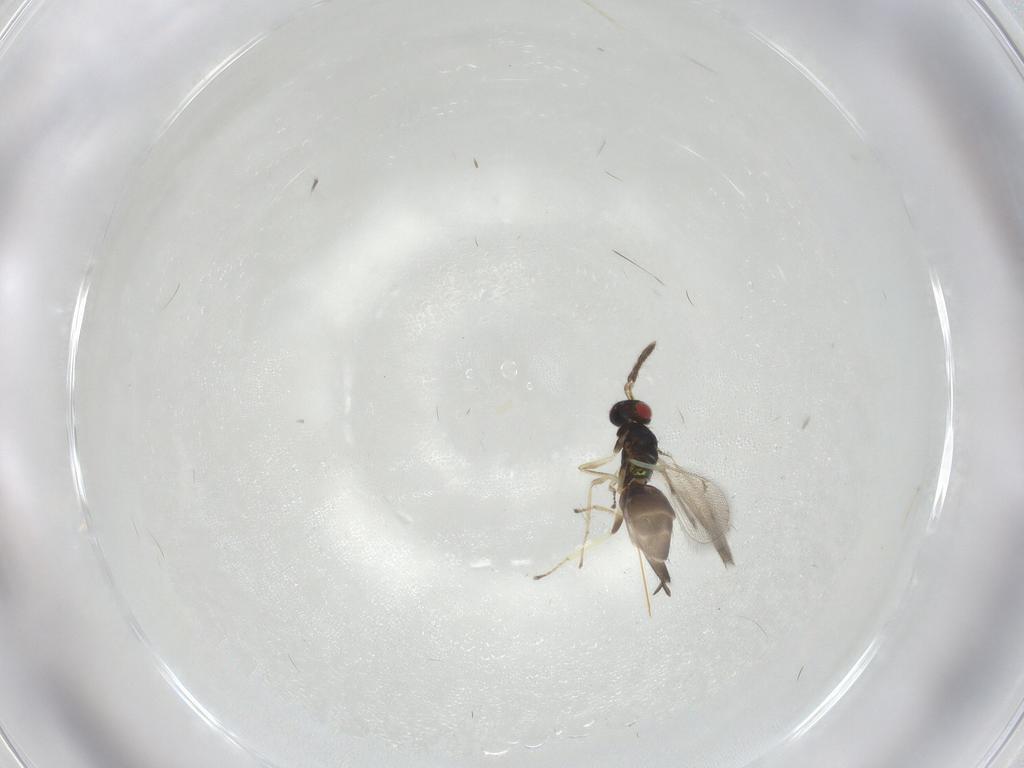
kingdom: Animalia
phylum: Arthropoda
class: Insecta
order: Hymenoptera
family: Eulophidae
